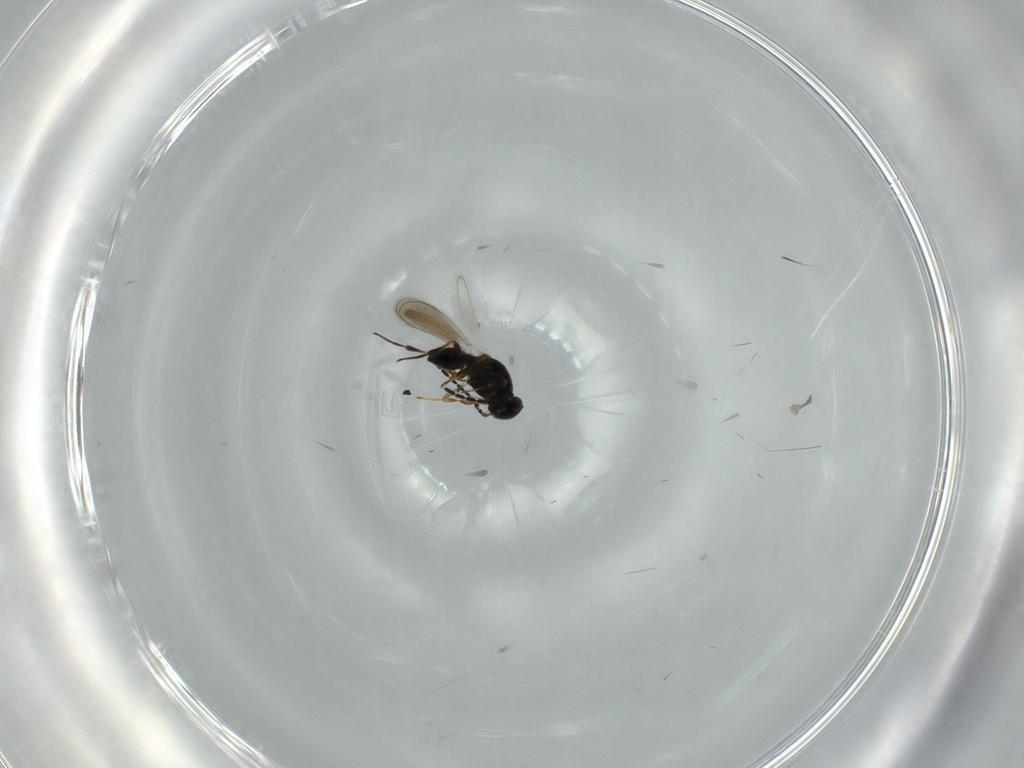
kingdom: Animalia
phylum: Arthropoda
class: Insecta
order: Hymenoptera
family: Platygastridae
